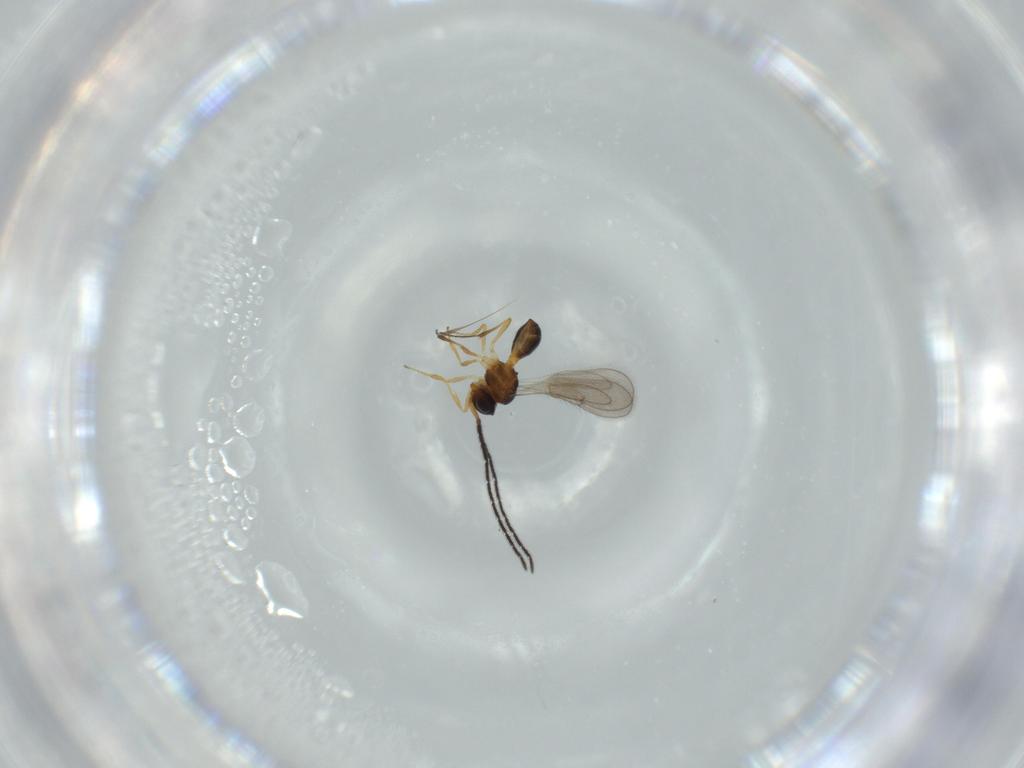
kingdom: Animalia
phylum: Arthropoda
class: Insecta
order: Hymenoptera
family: Scelionidae
